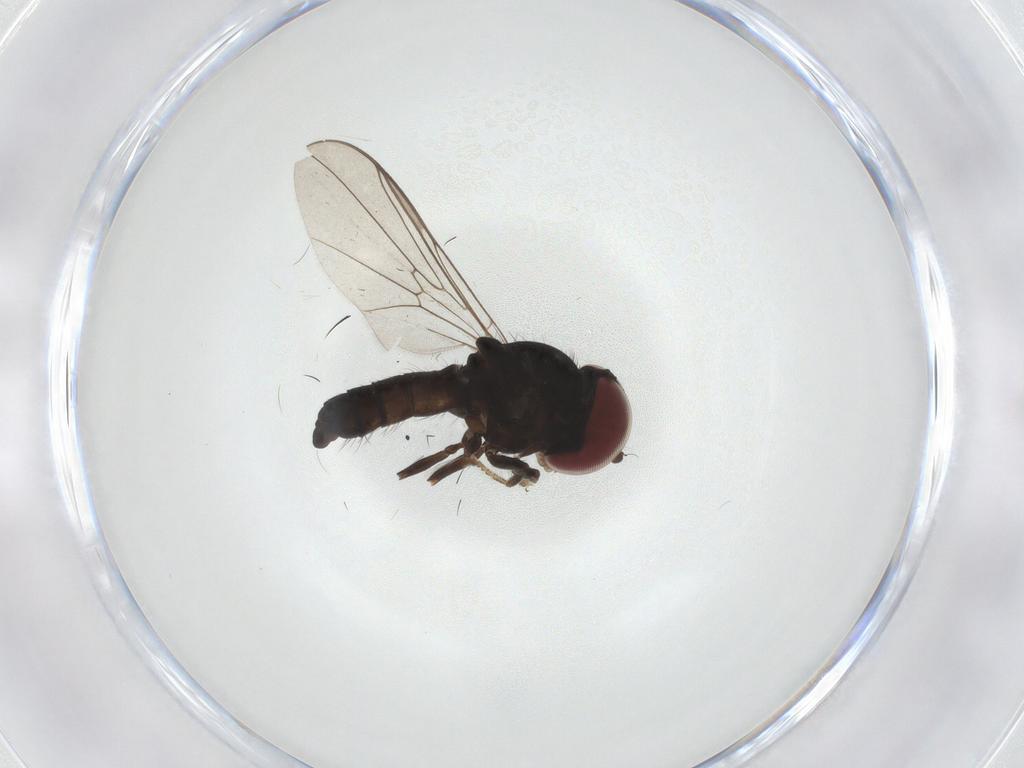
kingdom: Animalia
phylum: Arthropoda
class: Insecta
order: Diptera
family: Pipunculidae
